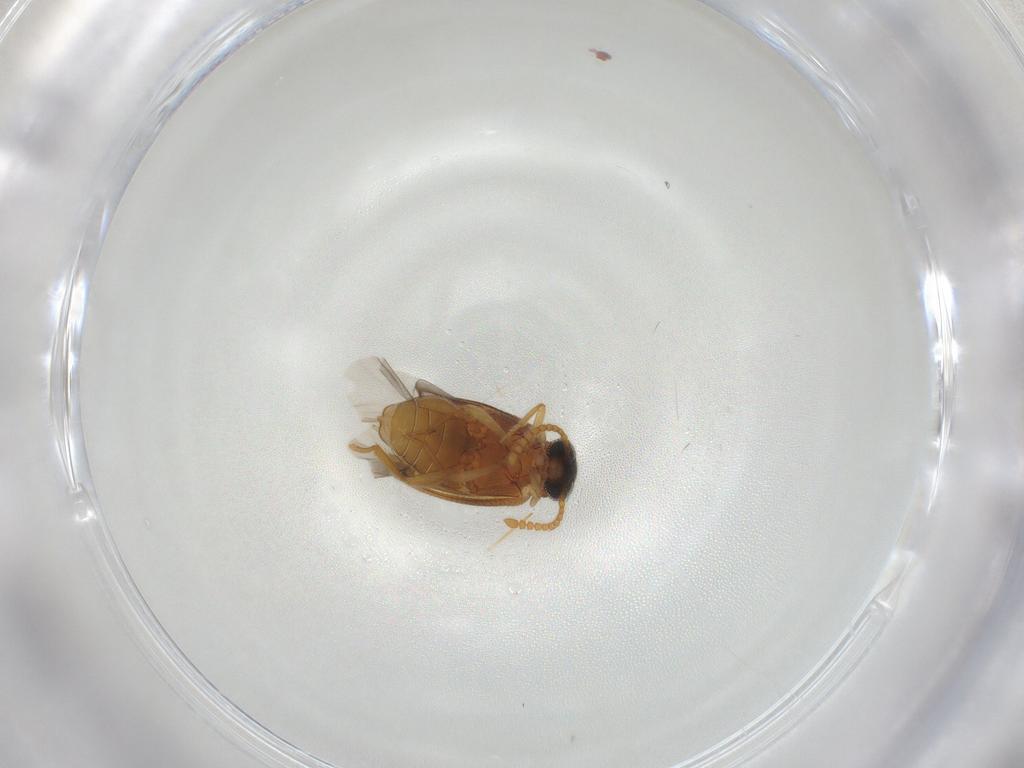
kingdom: Animalia
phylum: Arthropoda
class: Insecta
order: Coleoptera
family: Aderidae
